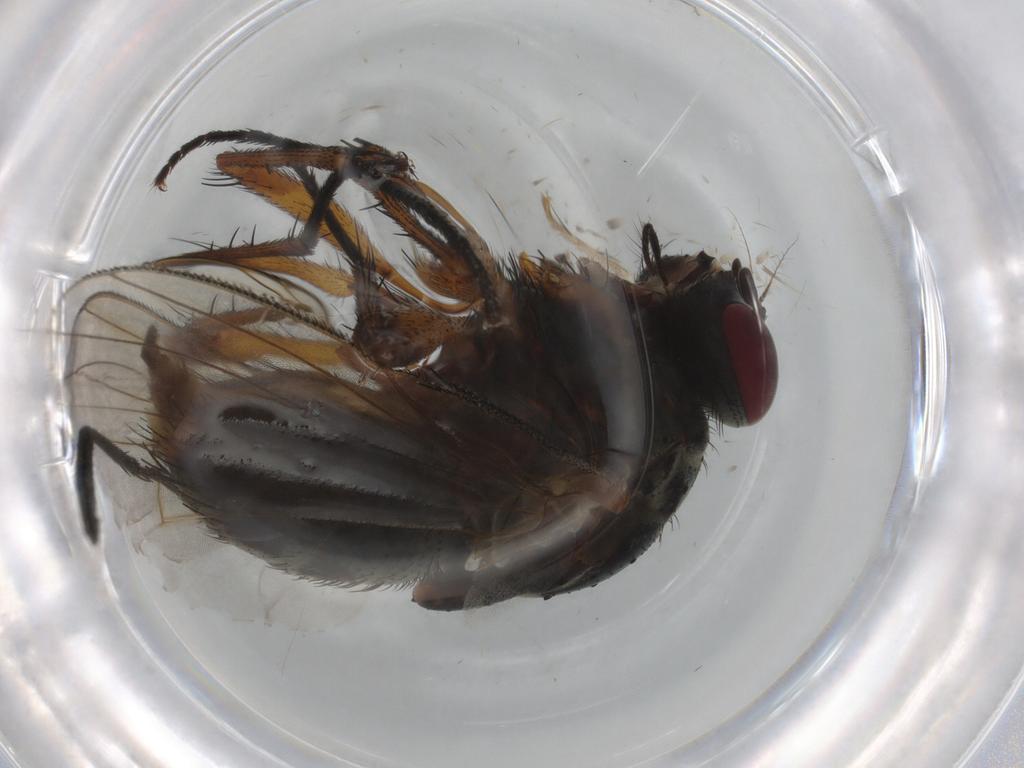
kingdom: Animalia
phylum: Arthropoda
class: Insecta
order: Diptera
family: Muscidae
